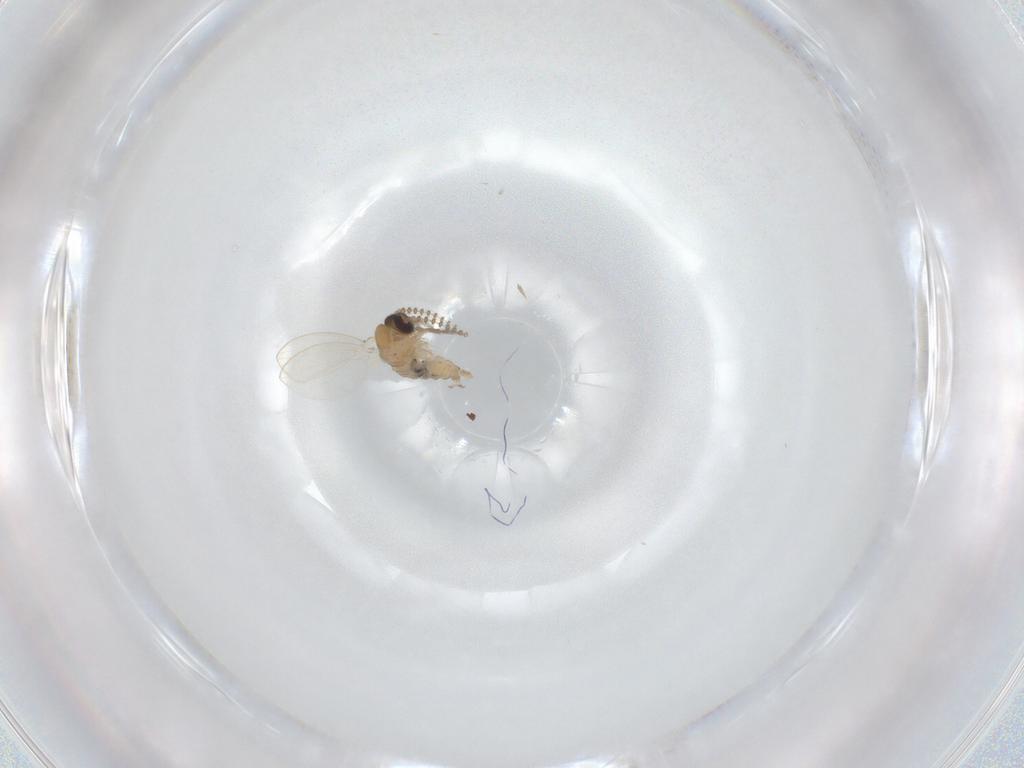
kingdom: Animalia
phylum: Arthropoda
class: Insecta
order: Diptera
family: Psychodidae
